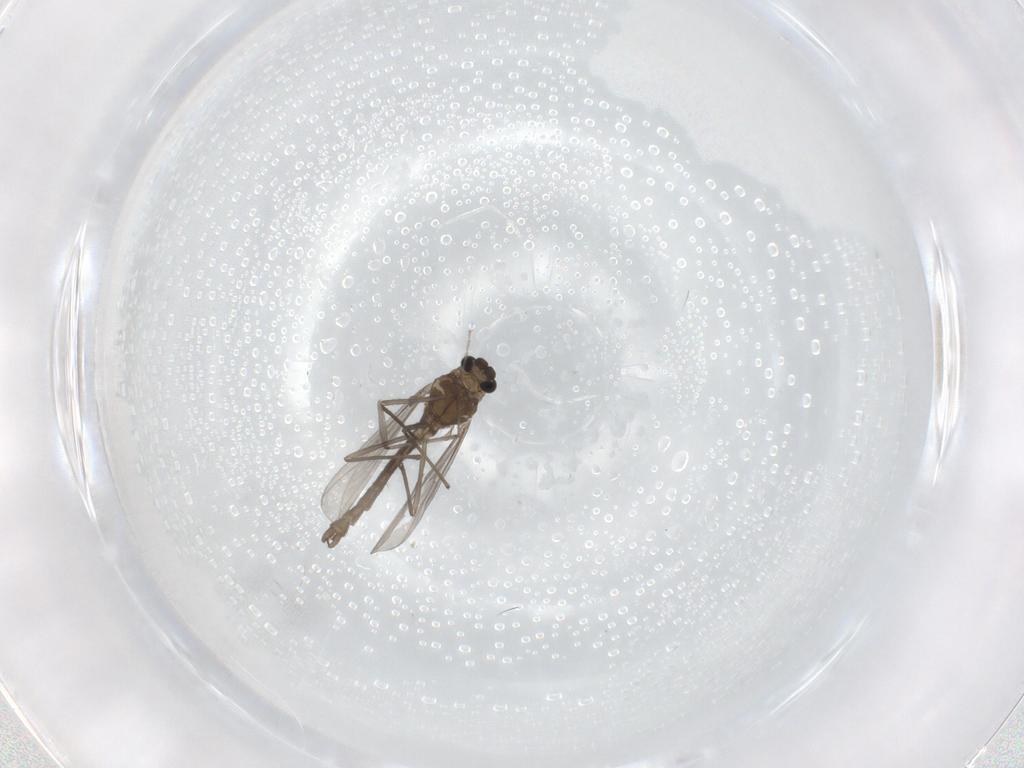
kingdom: Animalia
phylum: Arthropoda
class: Insecta
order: Diptera
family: Chironomidae
